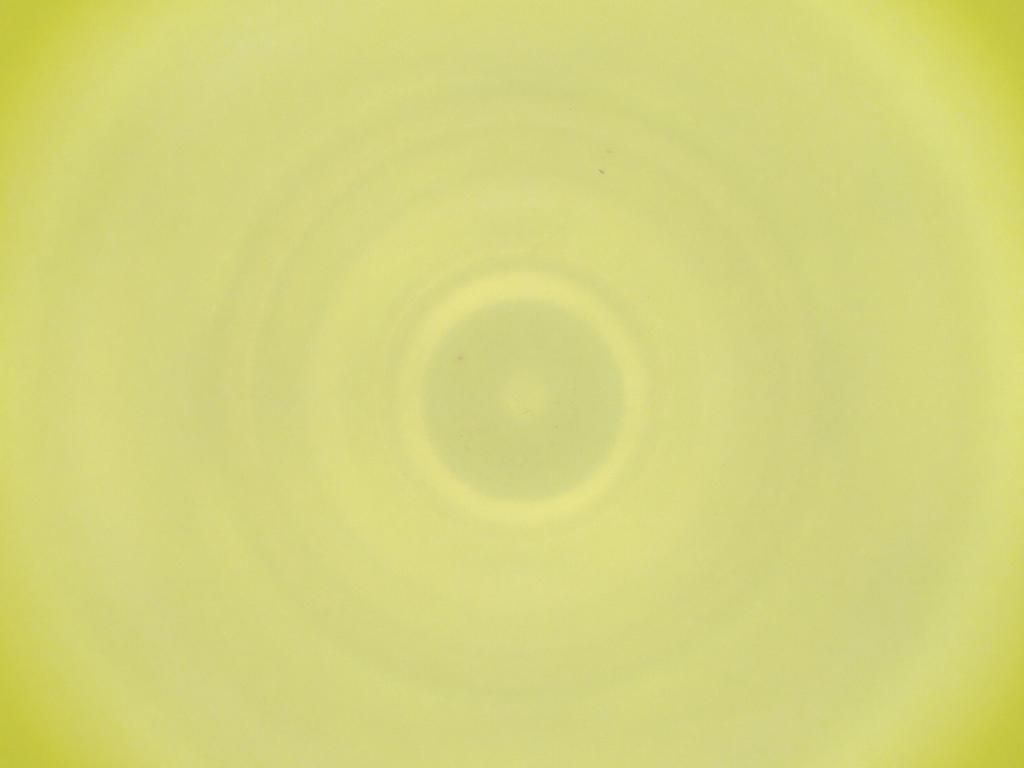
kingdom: Animalia
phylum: Arthropoda
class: Insecta
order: Diptera
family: Cecidomyiidae
